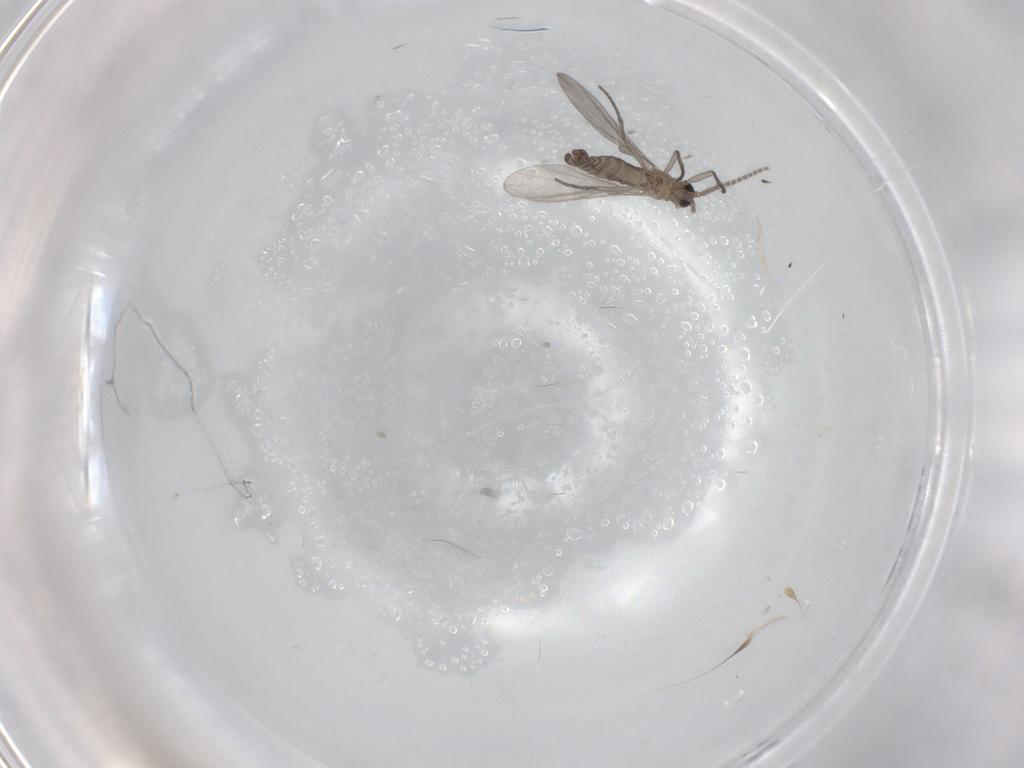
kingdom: Animalia
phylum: Arthropoda
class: Insecta
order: Diptera
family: Sciaridae
